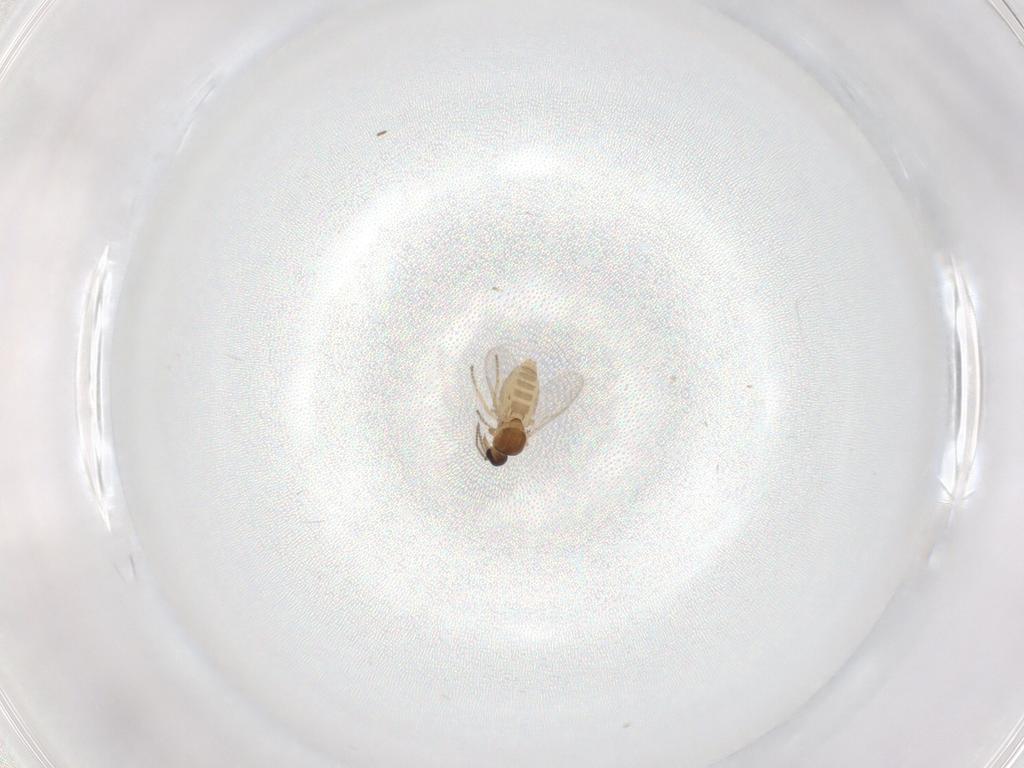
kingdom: Animalia
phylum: Arthropoda
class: Insecta
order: Diptera
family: Ceratopogonidae
